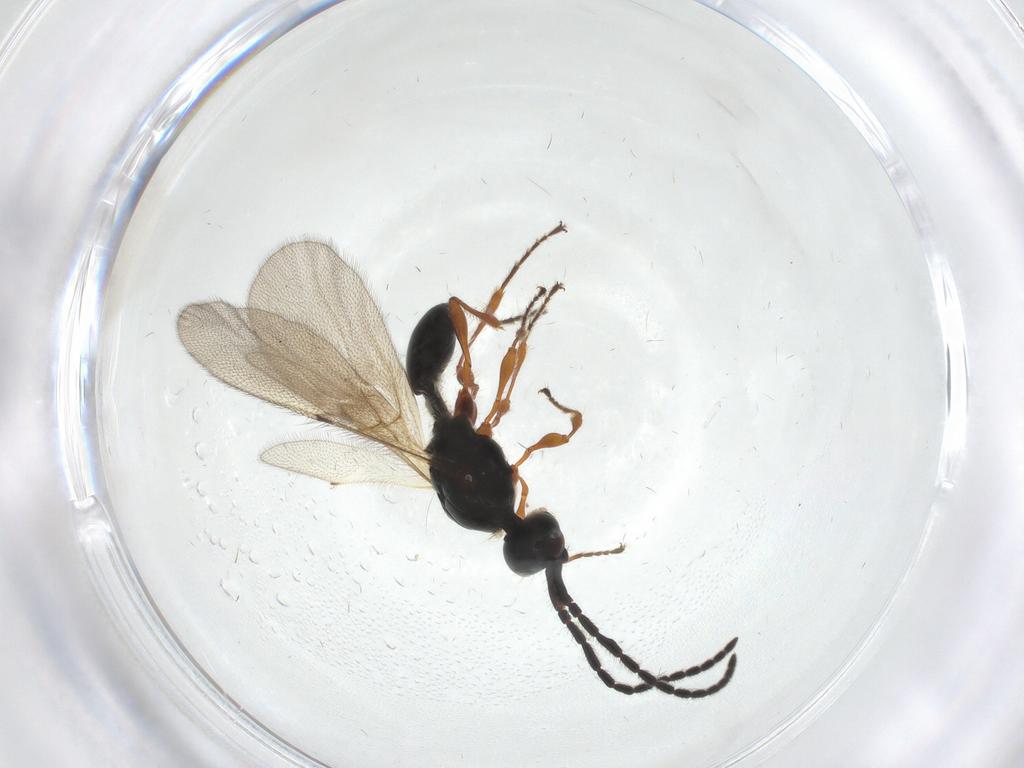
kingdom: Animalia
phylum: Arthropoda
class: Insecta
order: Hymenoptera
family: Diapriidae
